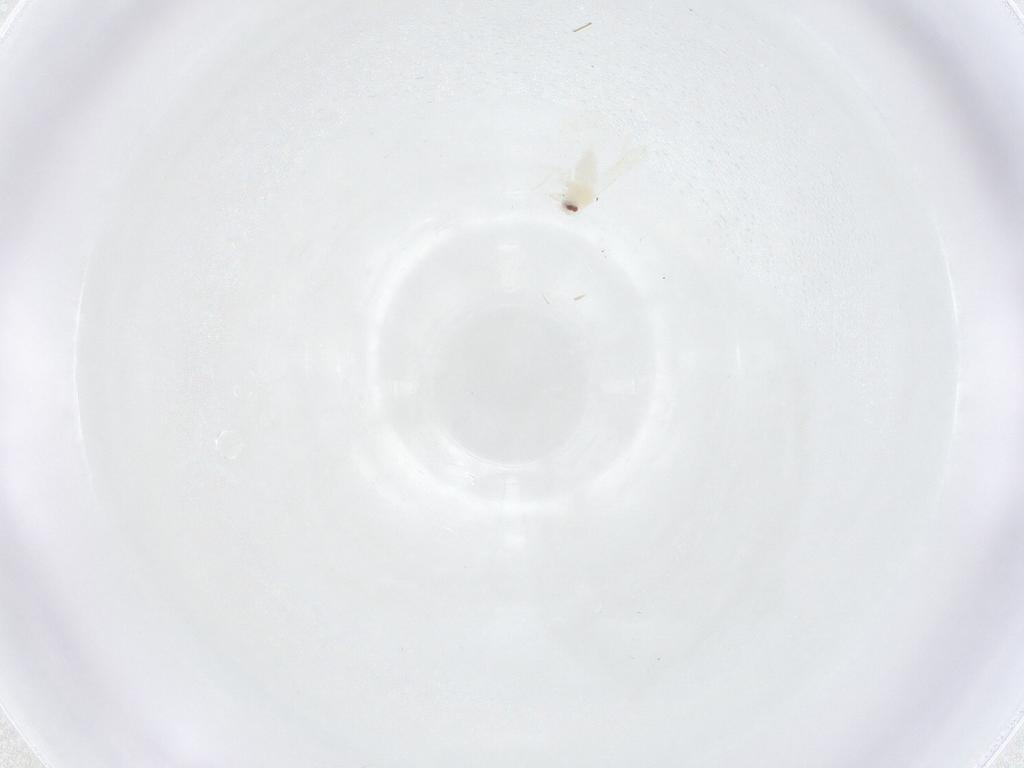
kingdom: Animalia
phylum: Arthropoda
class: Insecta
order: Hemiptera
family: Aleyrodidae
